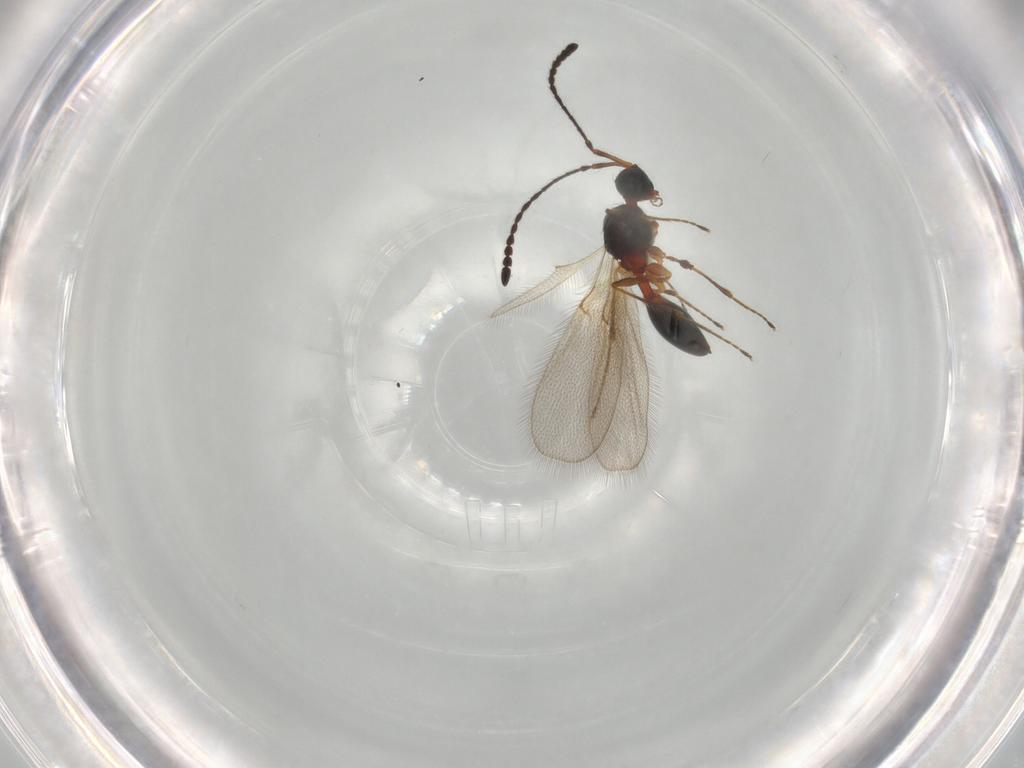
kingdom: Animalia
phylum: Arthropoda
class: Insecta
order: Hymenoptera
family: Diapriidae
